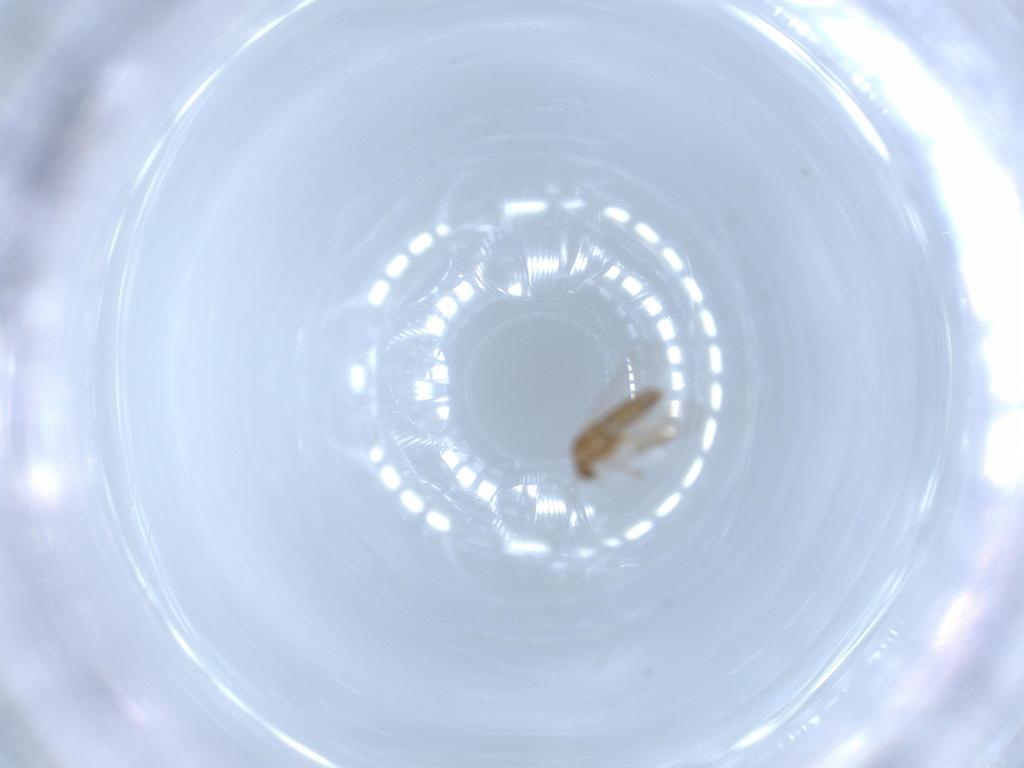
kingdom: Animalia
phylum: Arthropoda
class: Insecta
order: Diptera
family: Chironomidae
